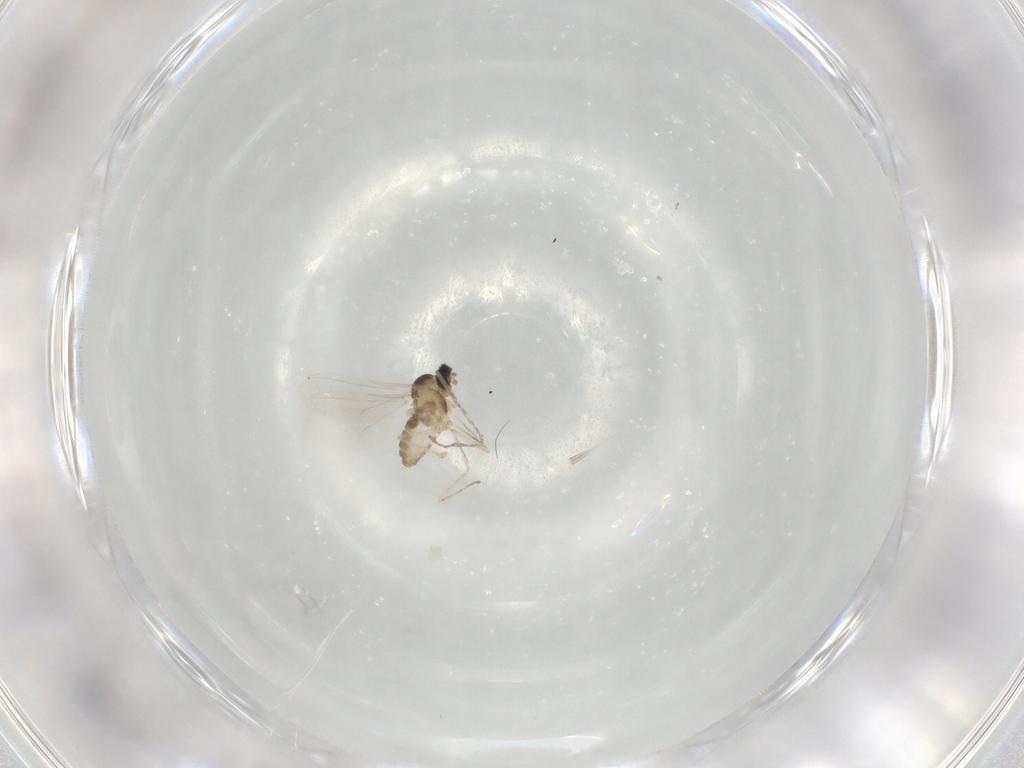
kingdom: Animalia
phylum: Arthropoda
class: Insecta
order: Diptera
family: Cecidomyiidae
